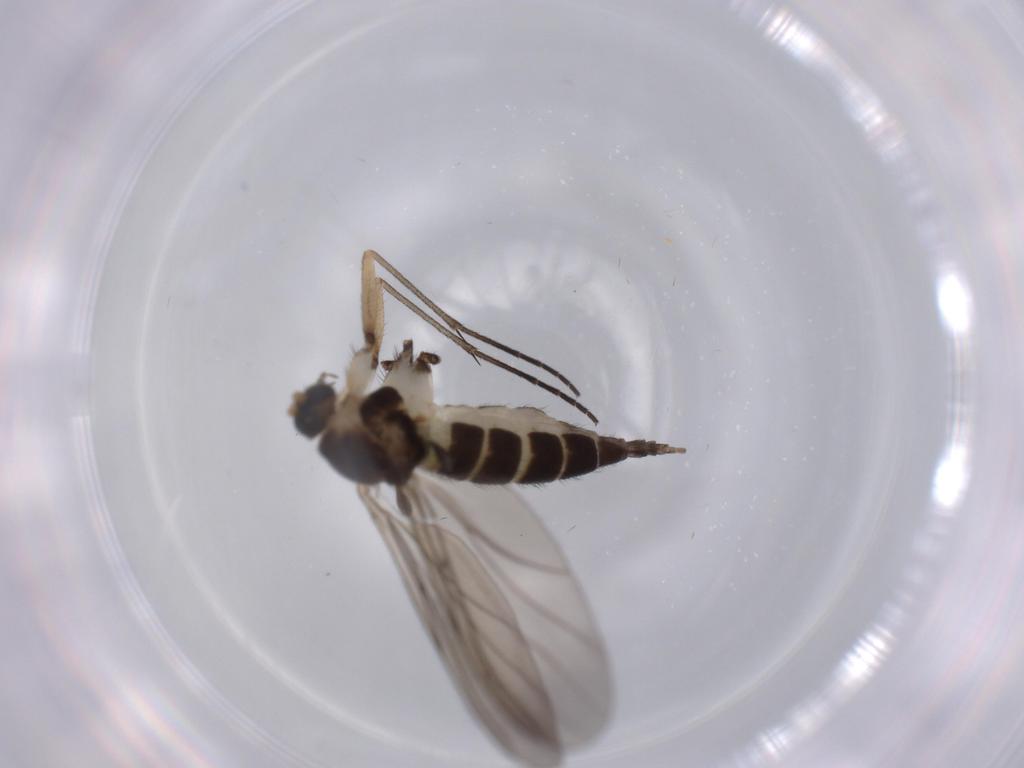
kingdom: Animalia
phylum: Arthropoda
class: Insecta
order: Diptera
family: Sciaridae
